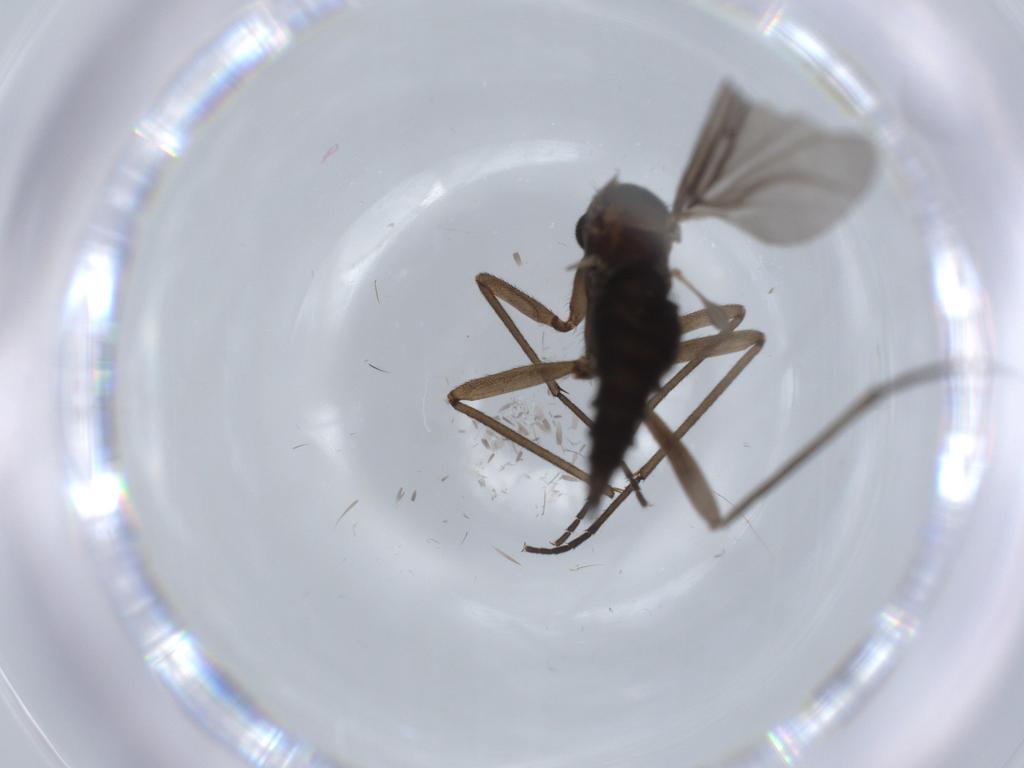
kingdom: Animalia
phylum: Arthropoda
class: Insecta
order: Diptera
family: Sciaridae
